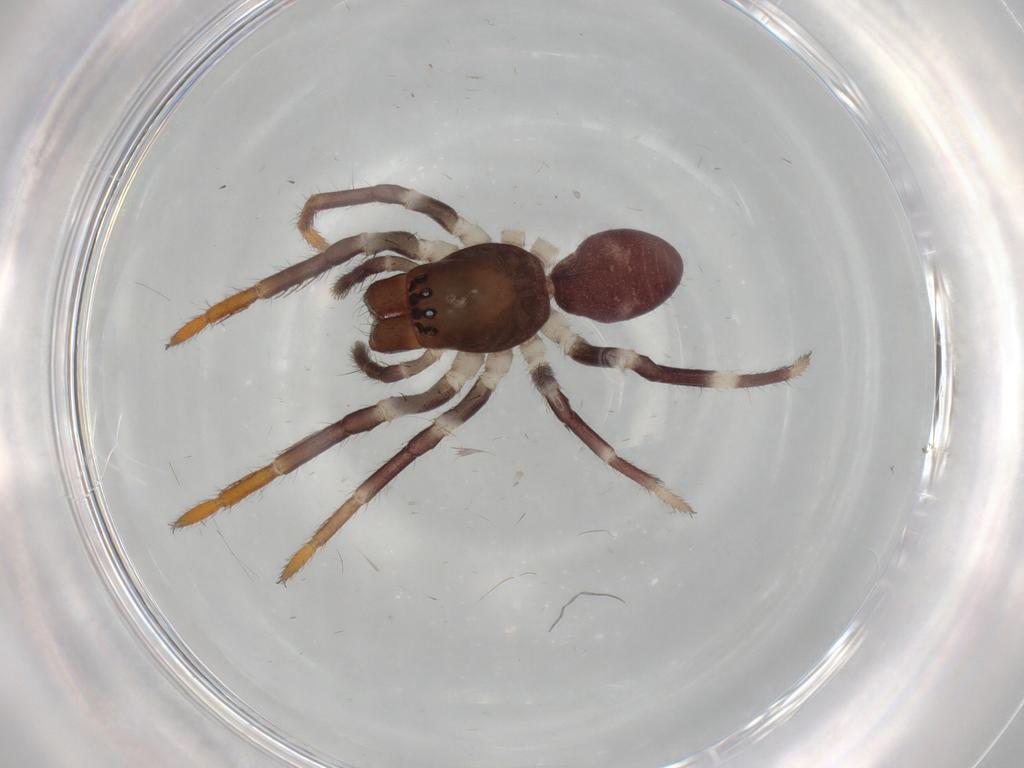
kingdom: Animalia
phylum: Arthropoda
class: Arachnida
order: Araneae
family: Corinnidae
